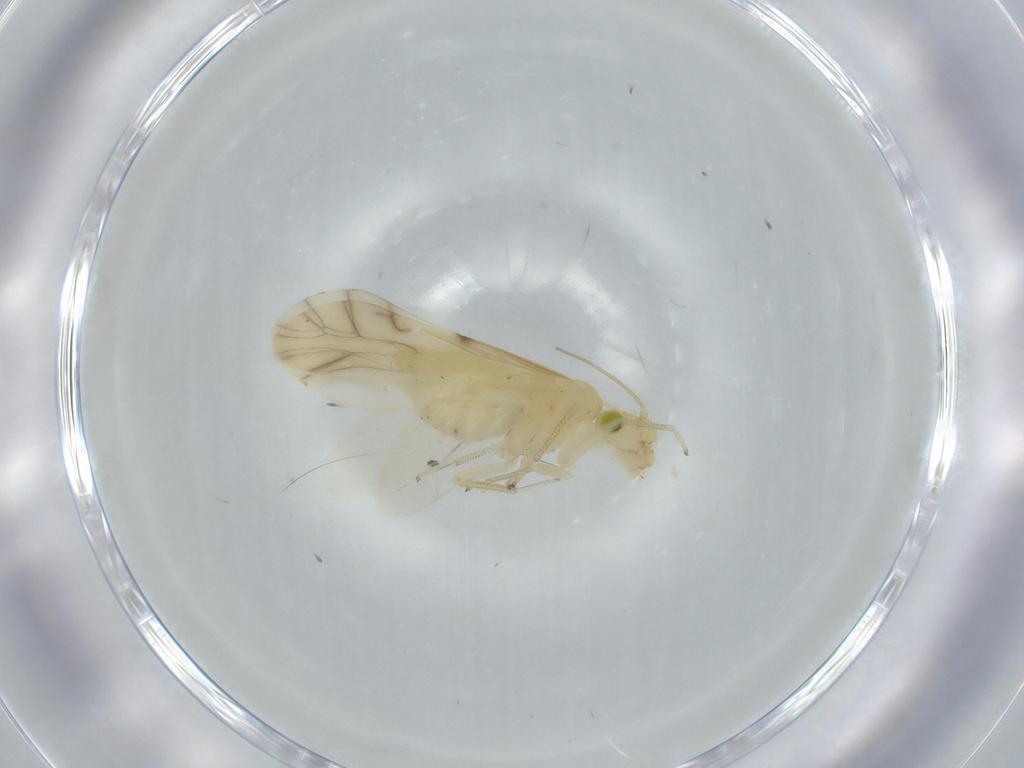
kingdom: Animalia
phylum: Arthropoda
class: Insecta
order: Psocodea
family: Caeciliusidae
